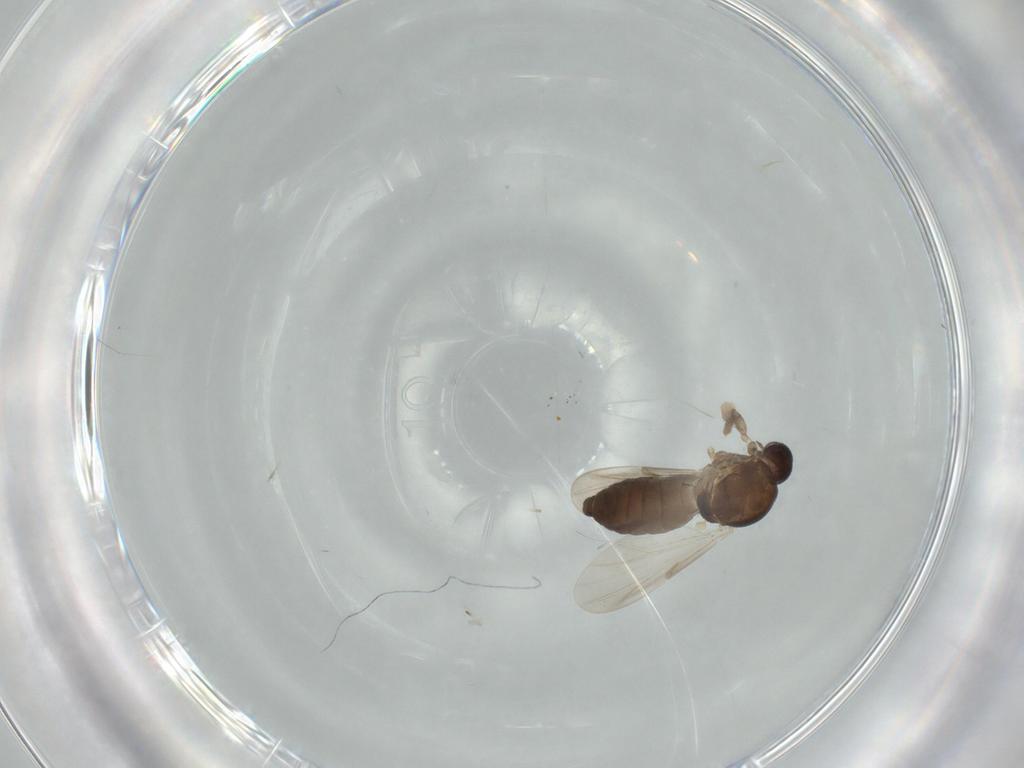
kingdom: Animalia
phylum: Arthropoda
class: Insecta
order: Diptera
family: Ceratopogonidae
